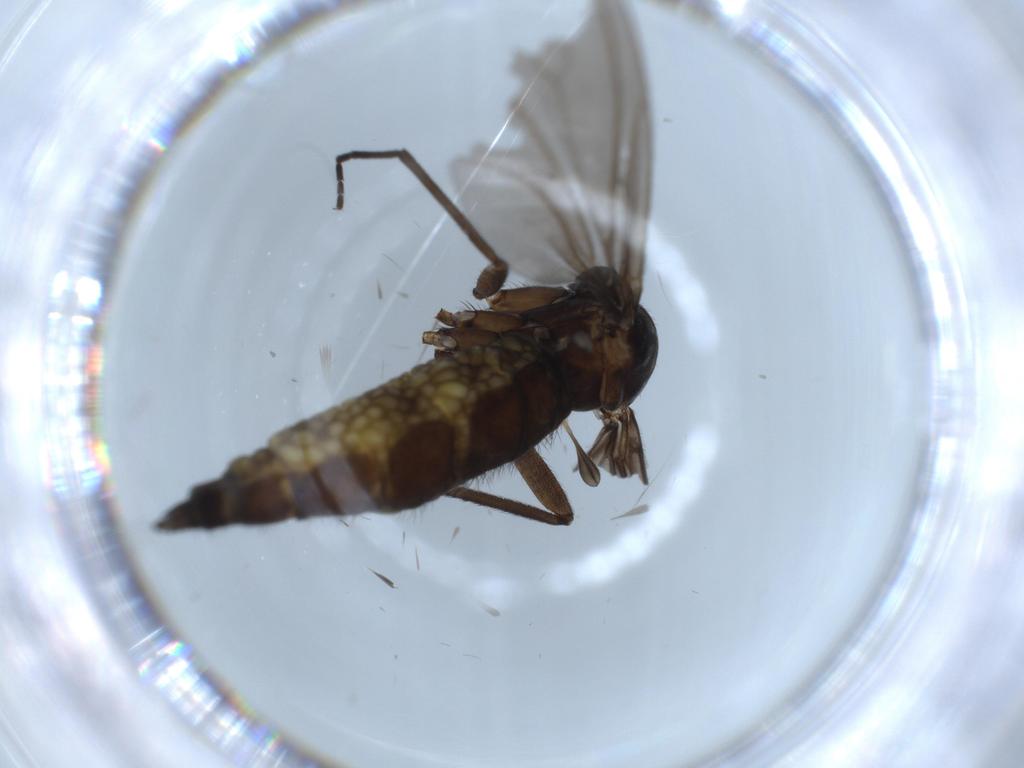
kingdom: Animalia
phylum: Arthropoda
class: Insecta
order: Diptera
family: Sciaridae
